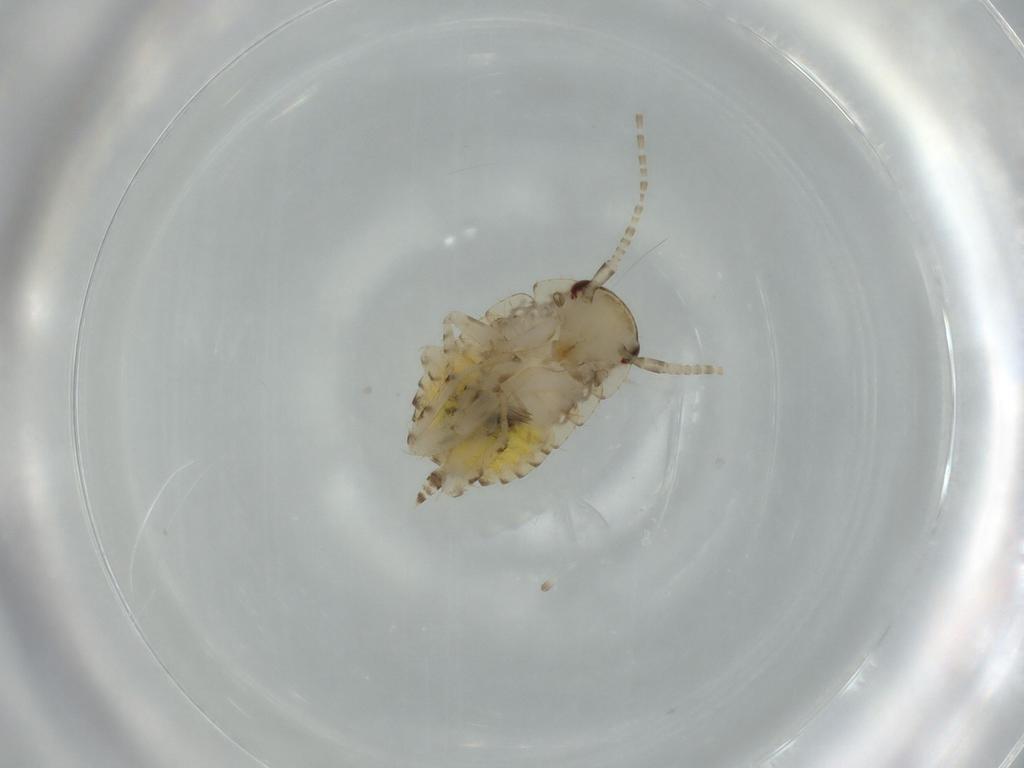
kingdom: Animalia
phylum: Arthropoda
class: Insecta
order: Blattodea
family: Ectobiidae
